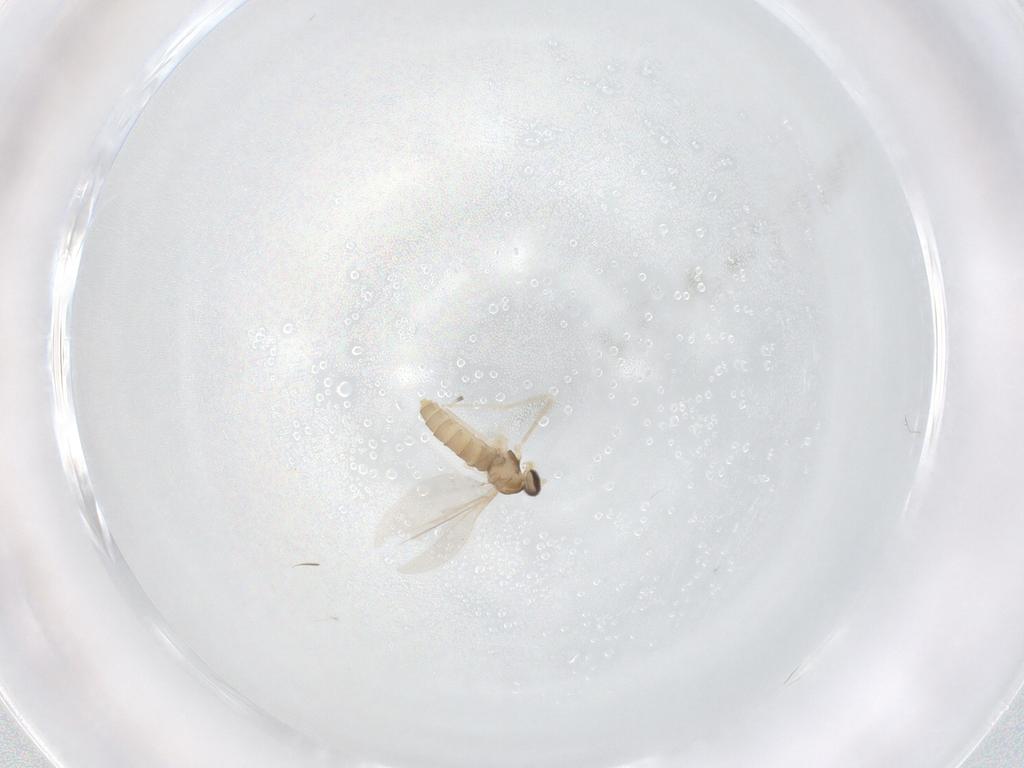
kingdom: Animalia
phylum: Arthropoda
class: Insecta
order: Diptera
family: Cecidomyiidae
